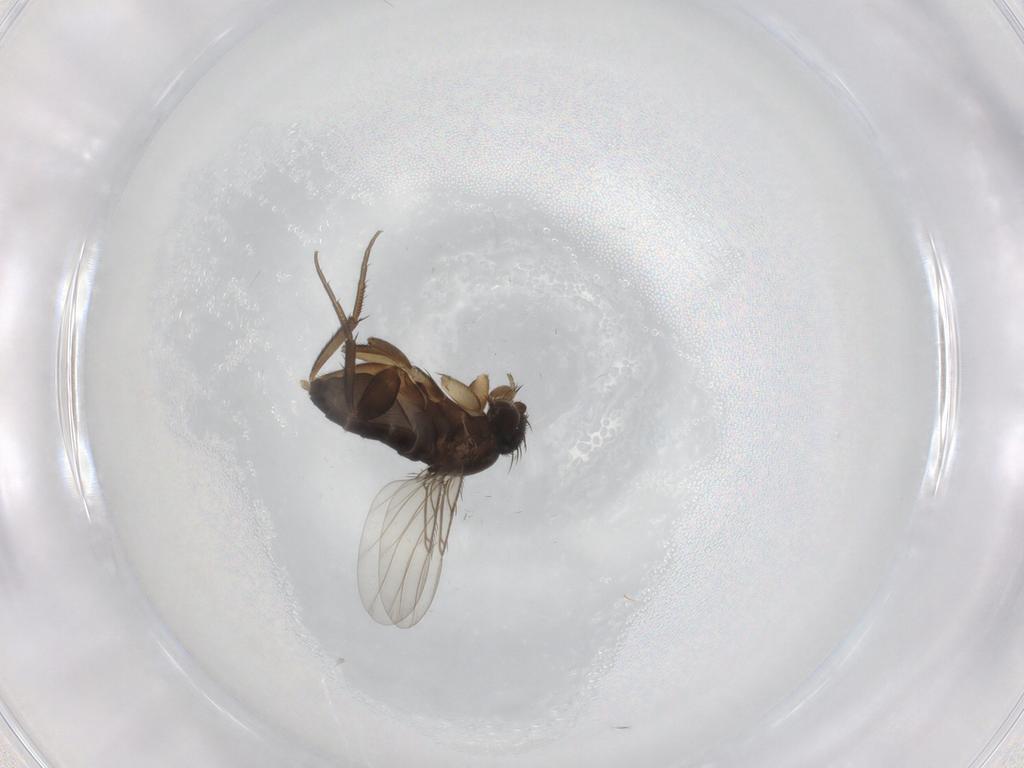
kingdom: Animalia
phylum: Arthropoda
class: Insecta
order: Diptera
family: Phoridae
